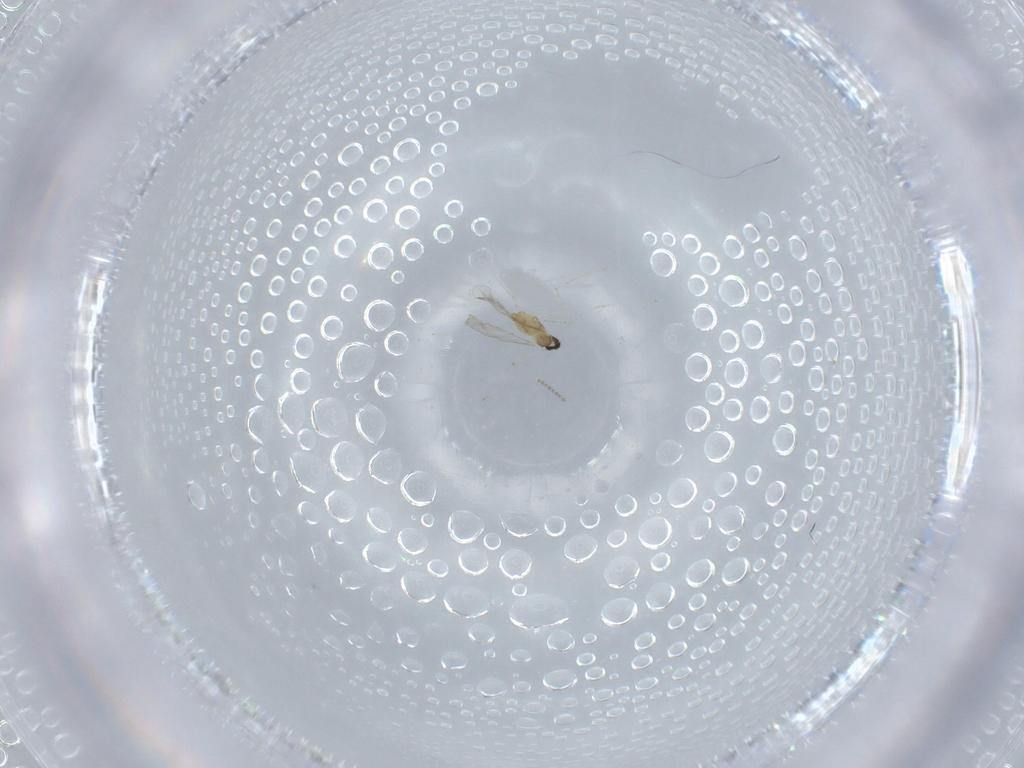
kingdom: Animalia
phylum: Arthropoda
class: Insecta
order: Diptera
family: Cecidomyiidae
